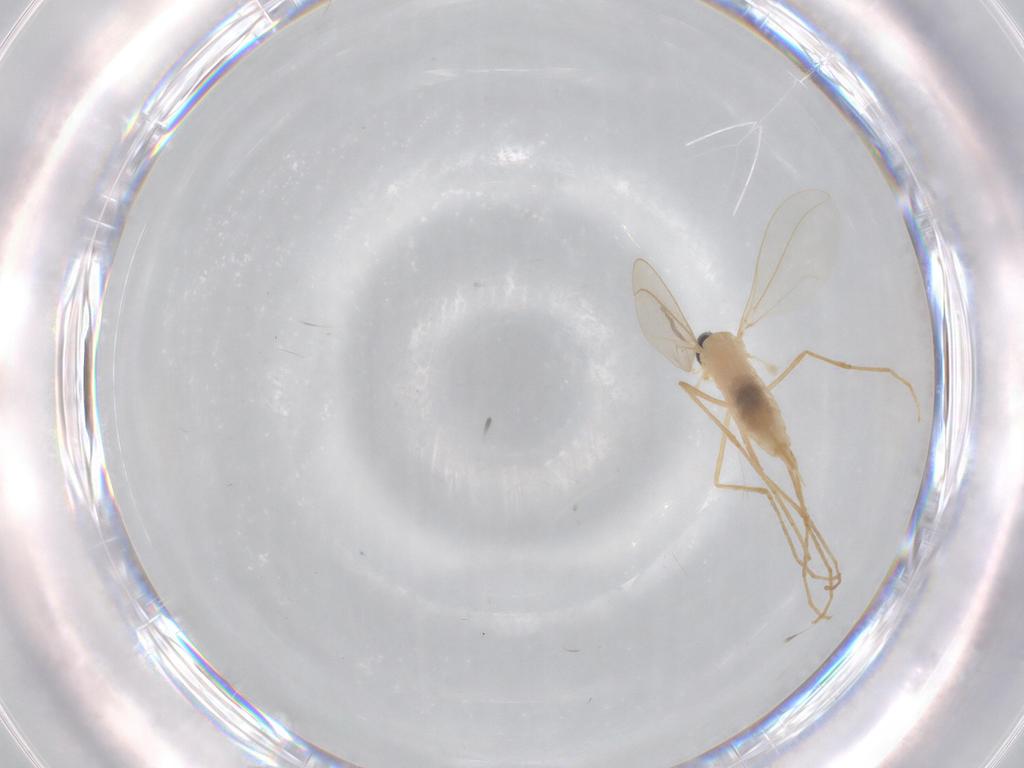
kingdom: Animalia
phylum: Arthropoda
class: Insecta
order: Diptera
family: Cecidomyiidae
